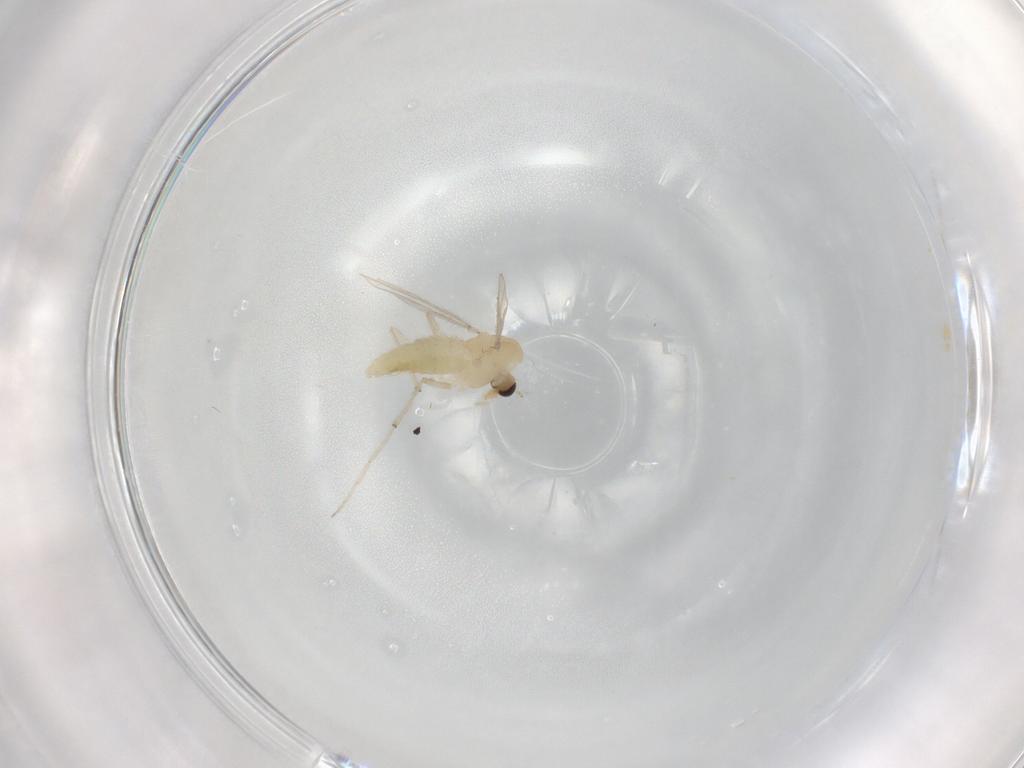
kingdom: Animalia
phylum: Arthropoda
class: Insecta
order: Diptera
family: Chironomidae
